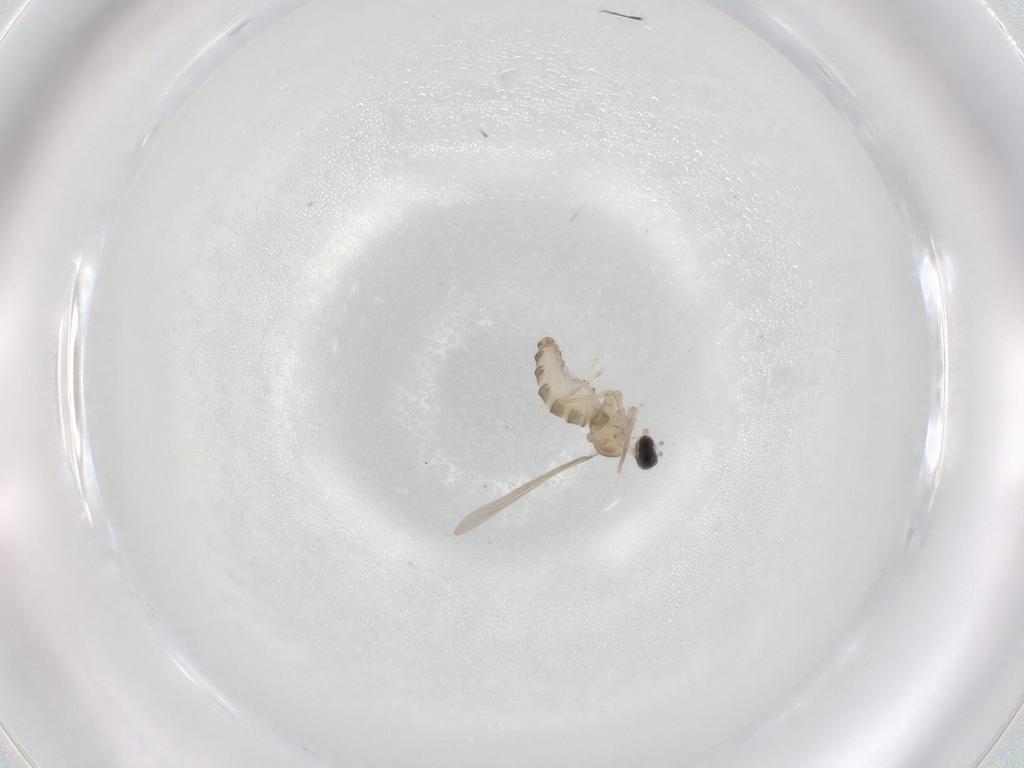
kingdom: Animalia
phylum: Arthropoda
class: Insecta
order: Diptera
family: Cecidomyiidae
